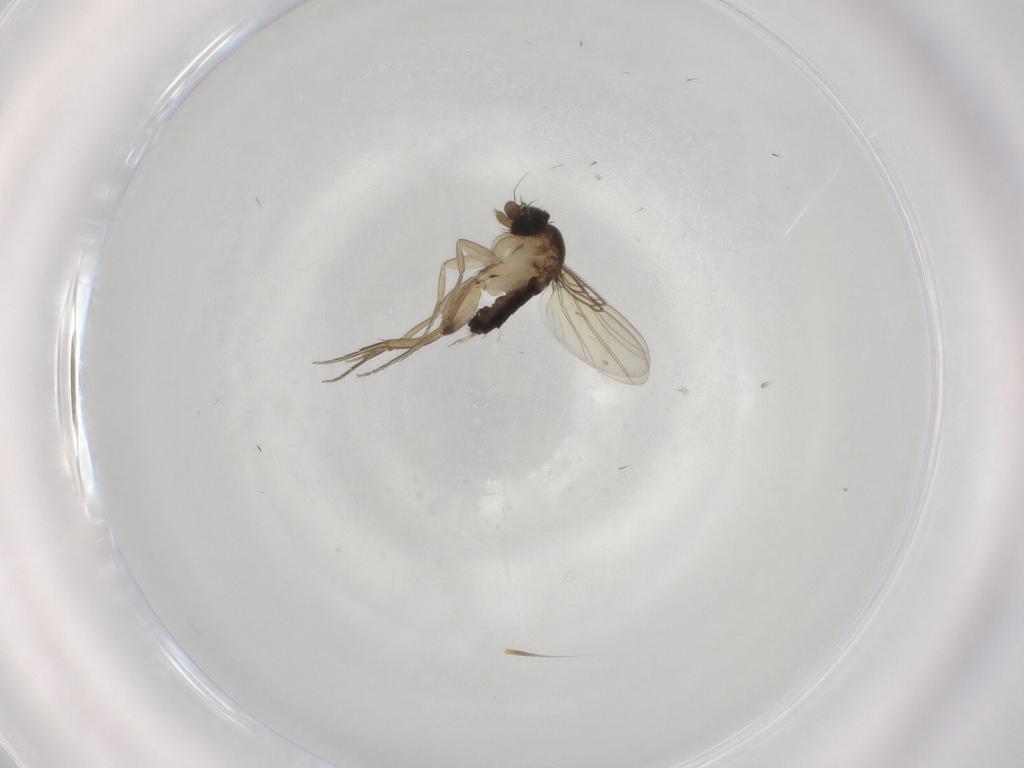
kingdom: Animalia
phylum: Arthropoda
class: Insecta
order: Diptera
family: Phoridae
